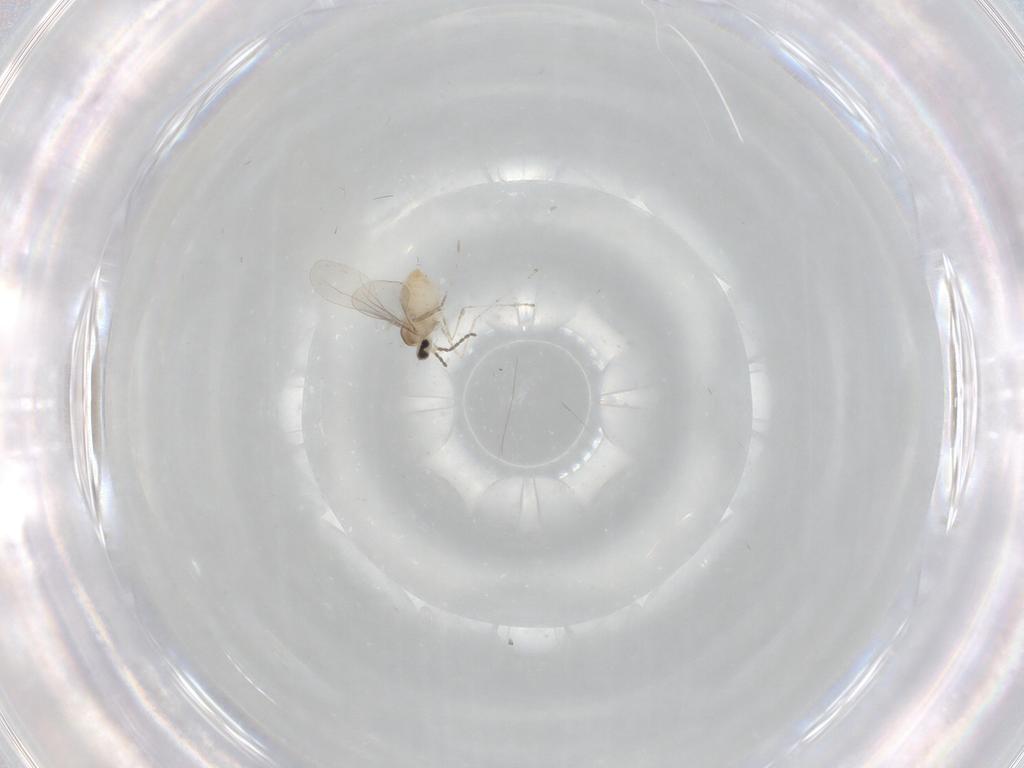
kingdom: Animalia
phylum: Arthropoda
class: Insecta
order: Diptera
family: Cecidomyiidae
